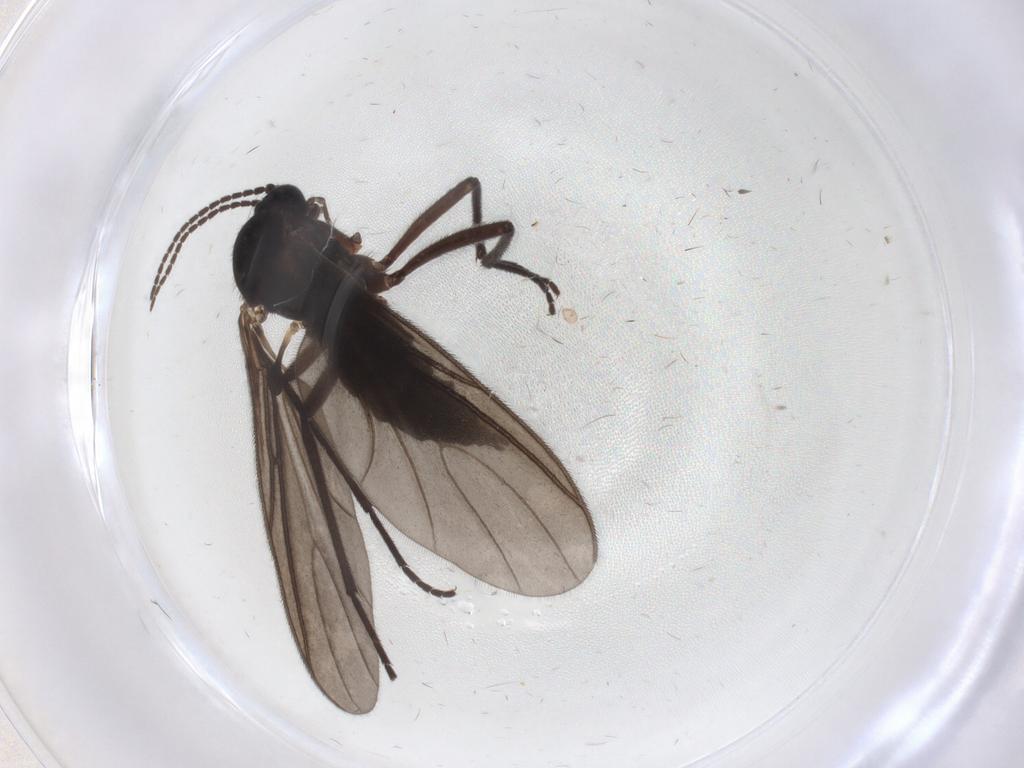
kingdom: Animalia
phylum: Arthropoda
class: Insecta
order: Diptera
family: Sciaridae
